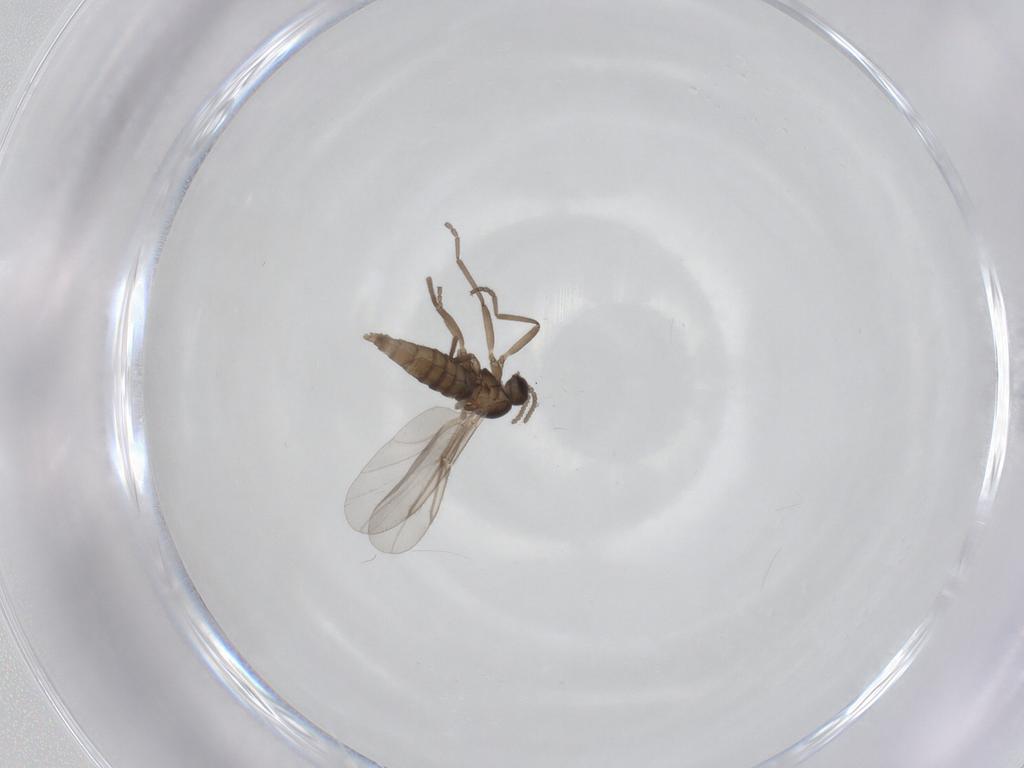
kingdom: Animalia
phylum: Arthropoda
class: Insecta
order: Diptera
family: Cecidomyiidae
